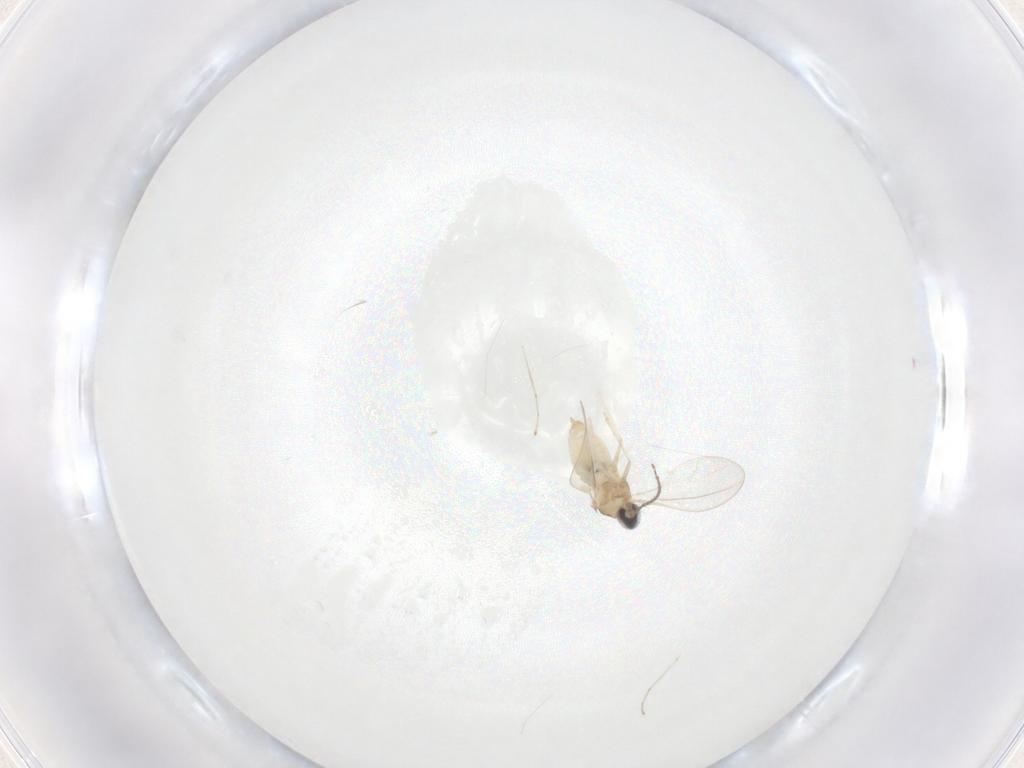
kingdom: Animalia
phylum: Arthropoda
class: Insecta
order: Diptera
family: Cecidomyiidae
